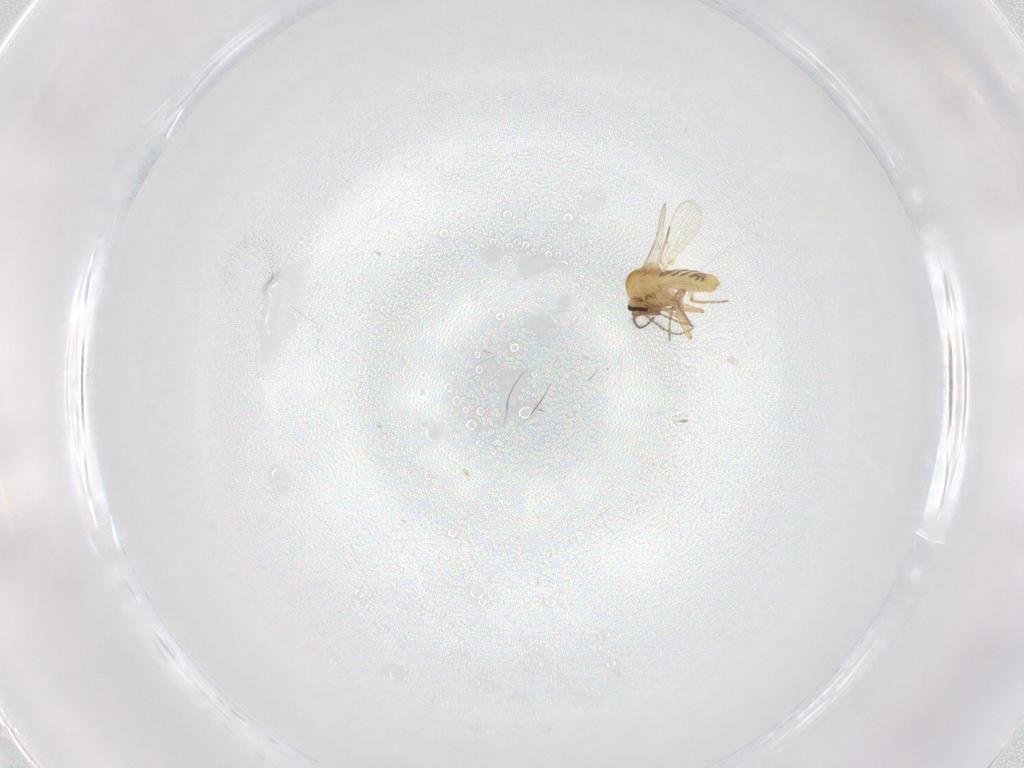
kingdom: Animalia
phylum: Arthropoda
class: Insecta
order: Diptera
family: Ceratopogonidae
